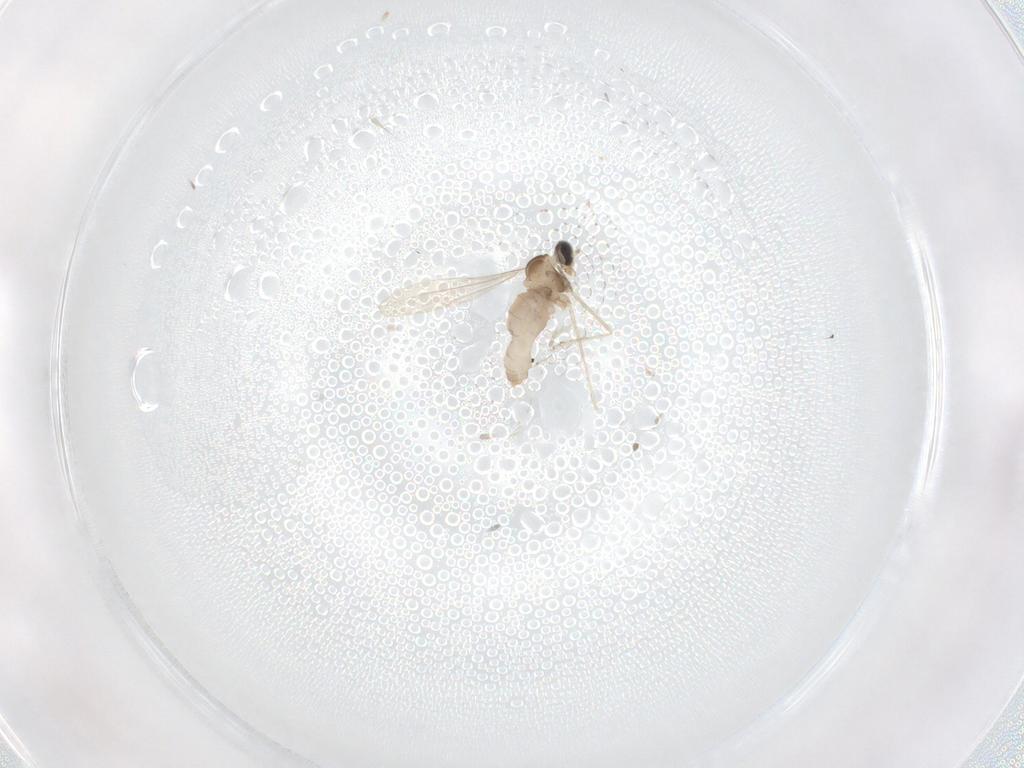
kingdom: Animalia
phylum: Arthropoda
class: Insecta
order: Diptera
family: Cecidomyiidae
